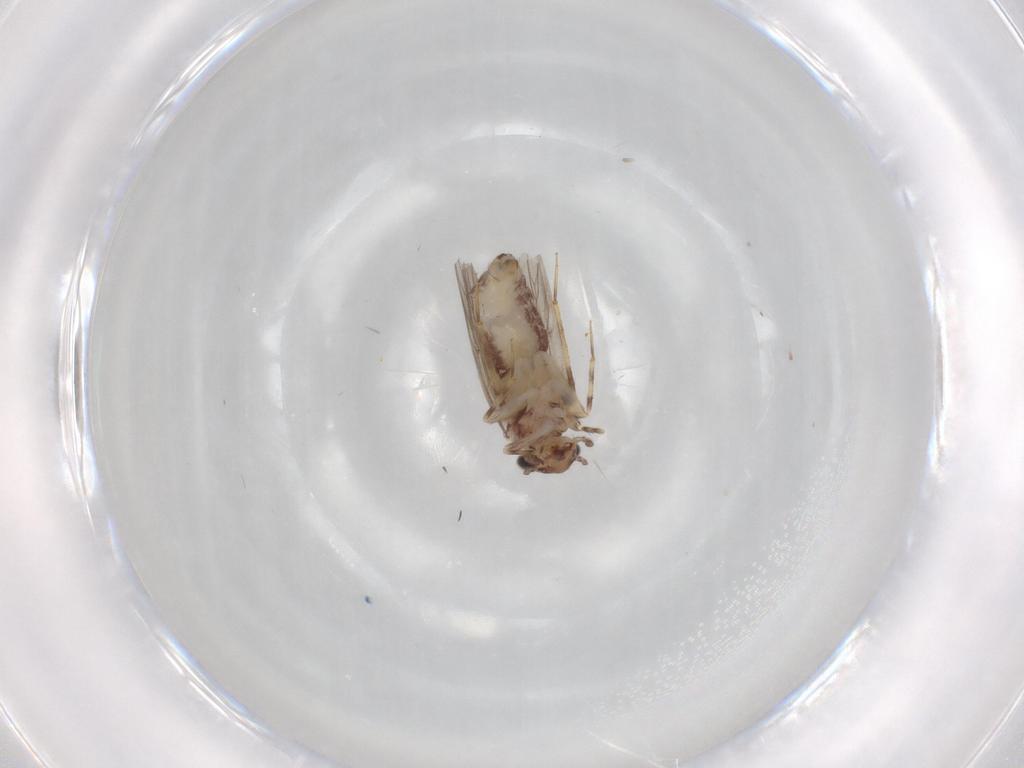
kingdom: Animalia
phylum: Arthropoda
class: Insecta
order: Psocodea
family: Lepidopsocidae
